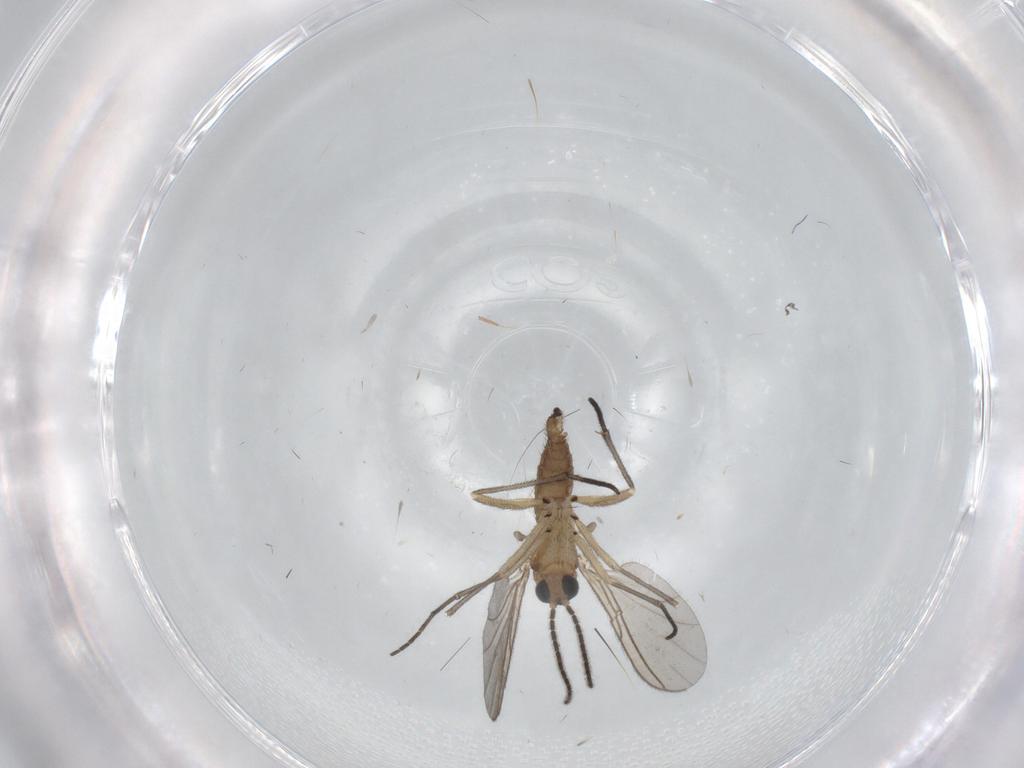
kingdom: Animalia
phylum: Arthropoda
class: Insecta
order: Diptera
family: Sciaridae
